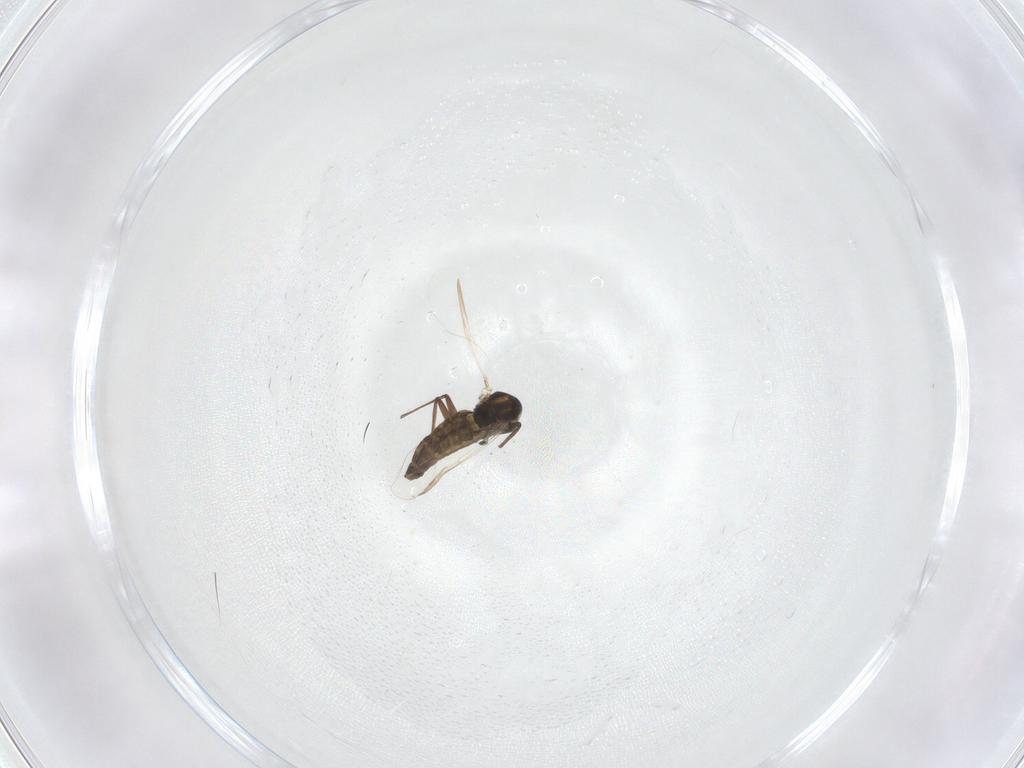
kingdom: Animalia
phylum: Arthropoda
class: Insecta
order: Diptera
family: Chironomidae
